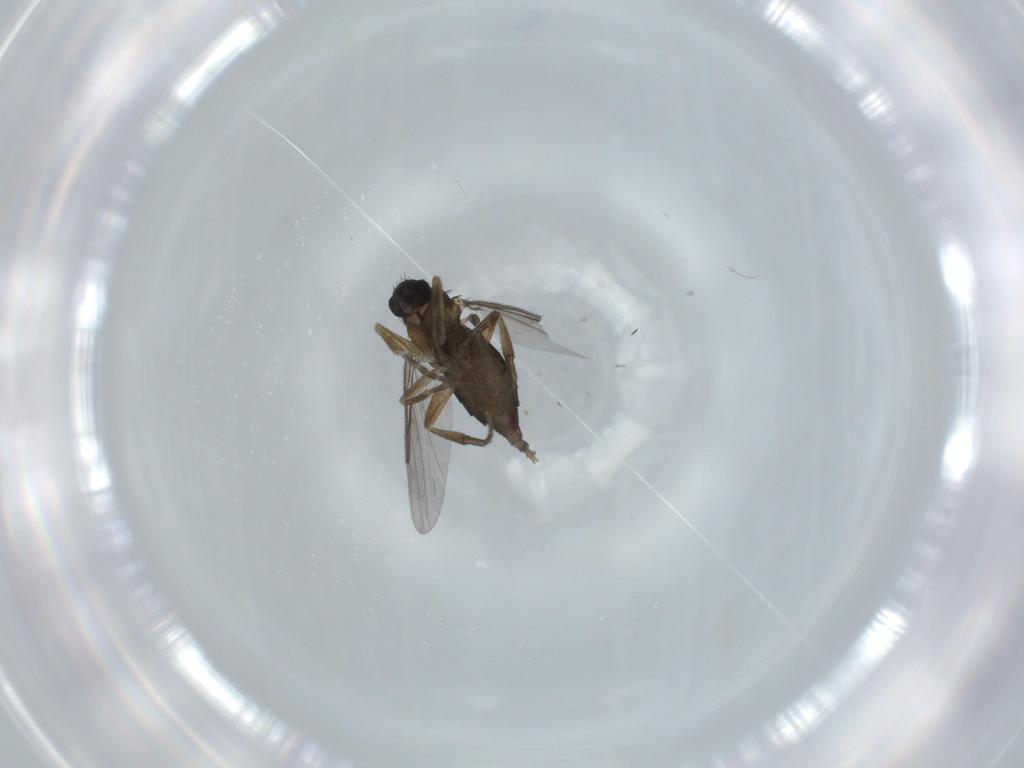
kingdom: Animalia
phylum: Arthropoda
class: Insecta
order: Diptera
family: Phoridae
